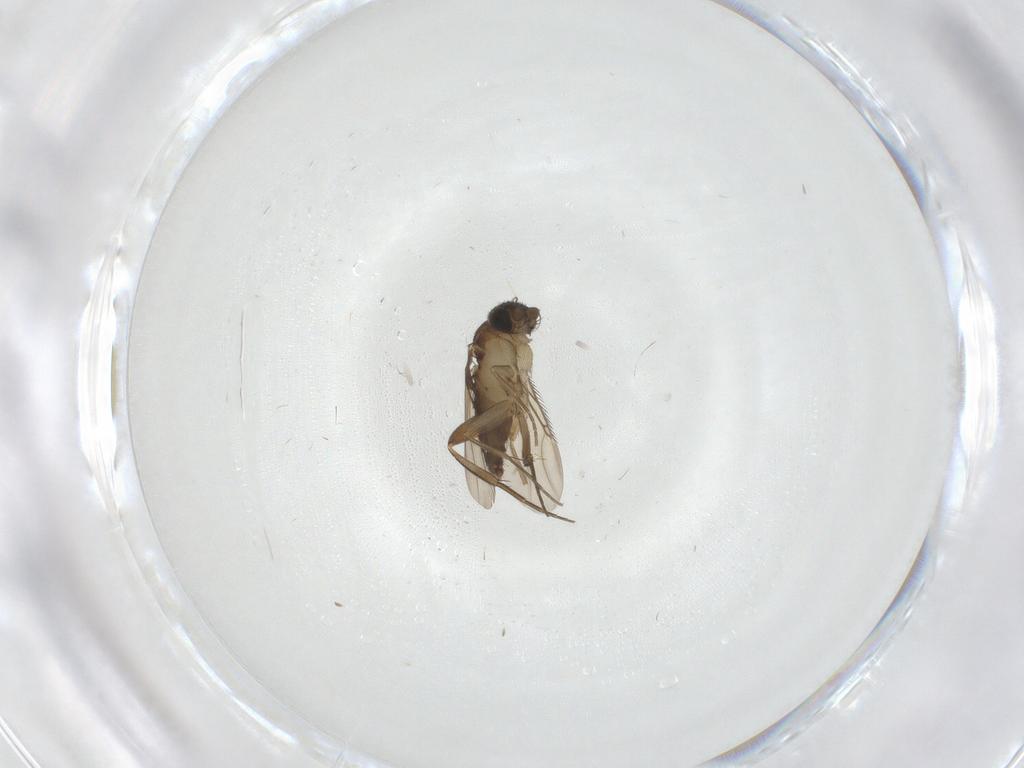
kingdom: Animalia
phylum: Arthropoda
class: Insecta
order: Diptera
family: Phoridae
